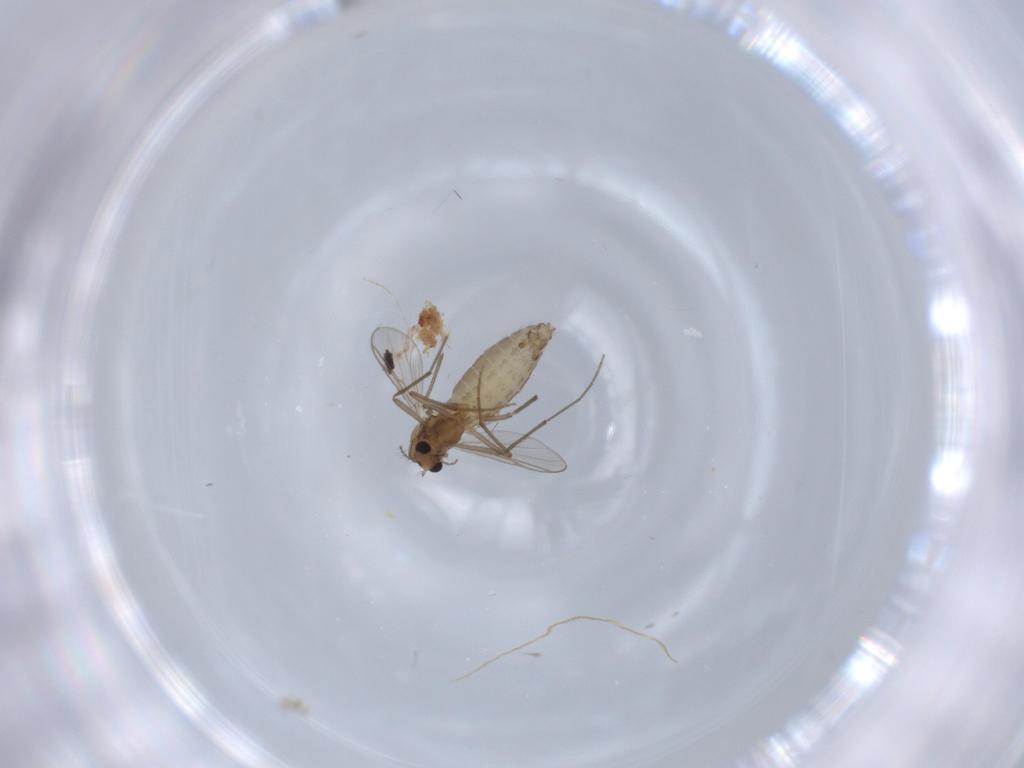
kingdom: Animalia
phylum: Arthropoda
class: Insecta
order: Diptera
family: Chironomidae
